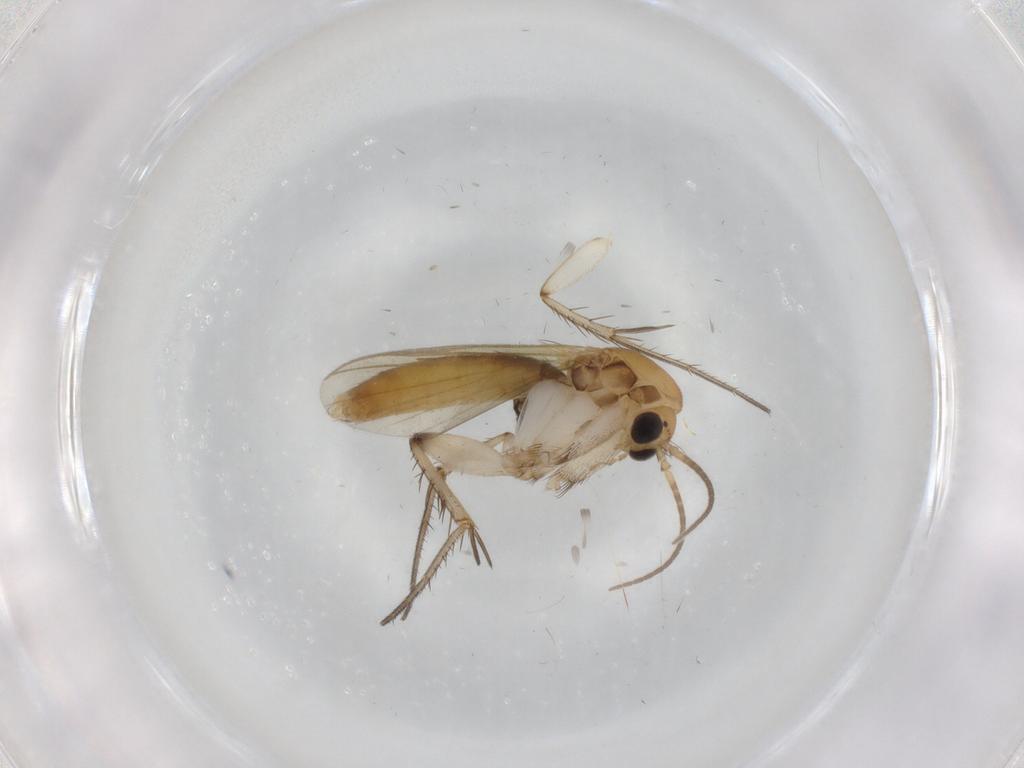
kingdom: Animalia
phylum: Arthropoda
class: Insecta
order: Diptera
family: Mycetophilidae
